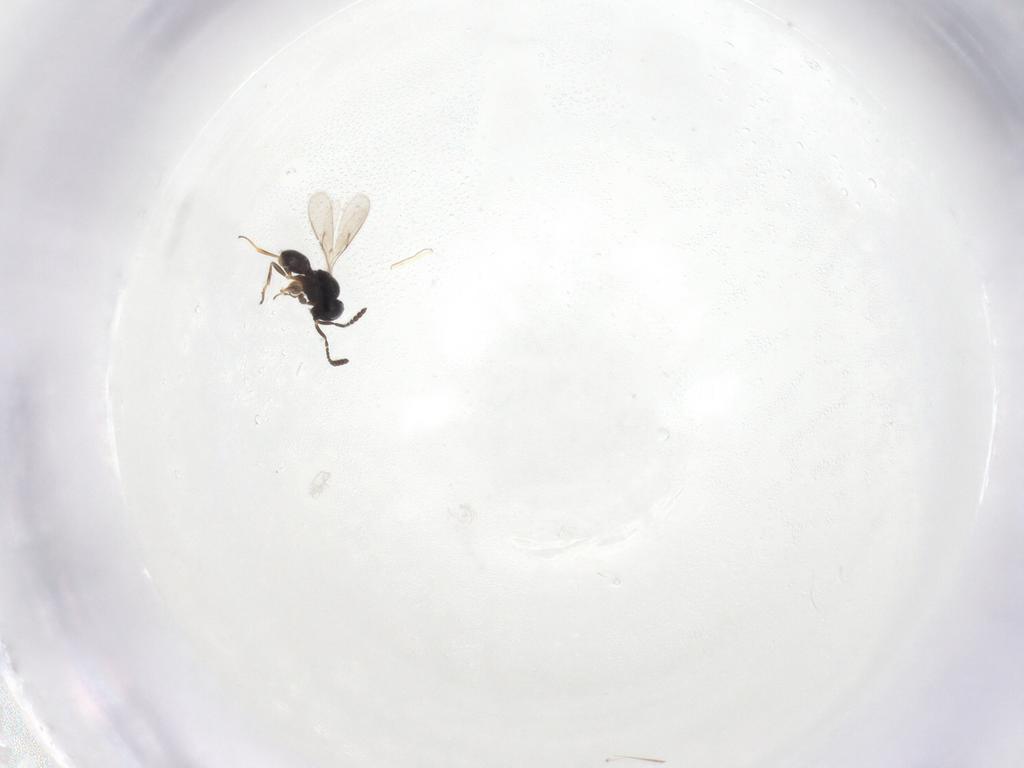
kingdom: Animalia
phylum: Arthropoda
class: Insecta
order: Hymenoptera
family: Scelionidae
